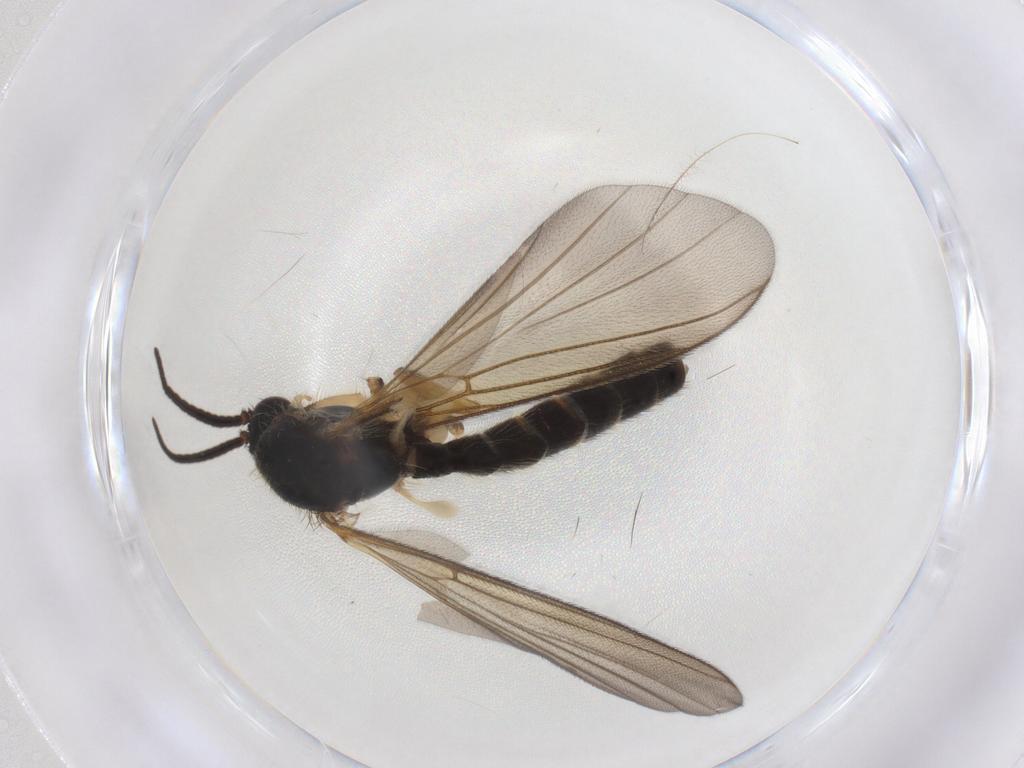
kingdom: Animalia
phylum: Arthropoda
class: Insecta
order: Diptera
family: Mycetophilidae
